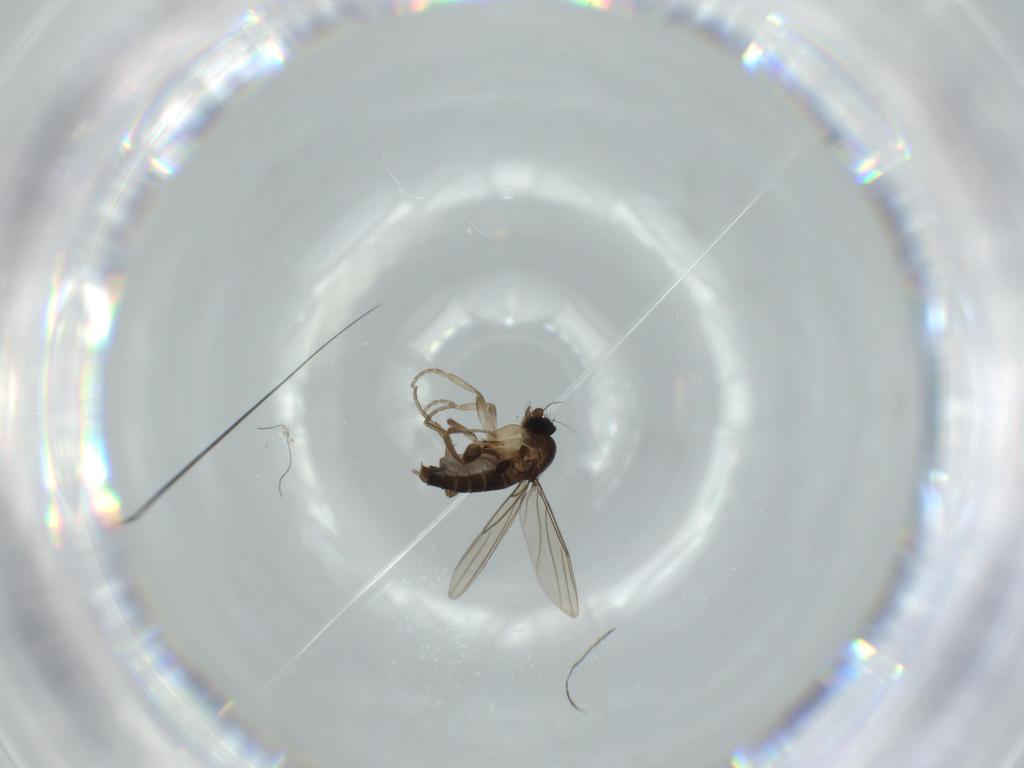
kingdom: Animalia
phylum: Arthropoda
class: Insecta
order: Diptera
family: Phoridae
